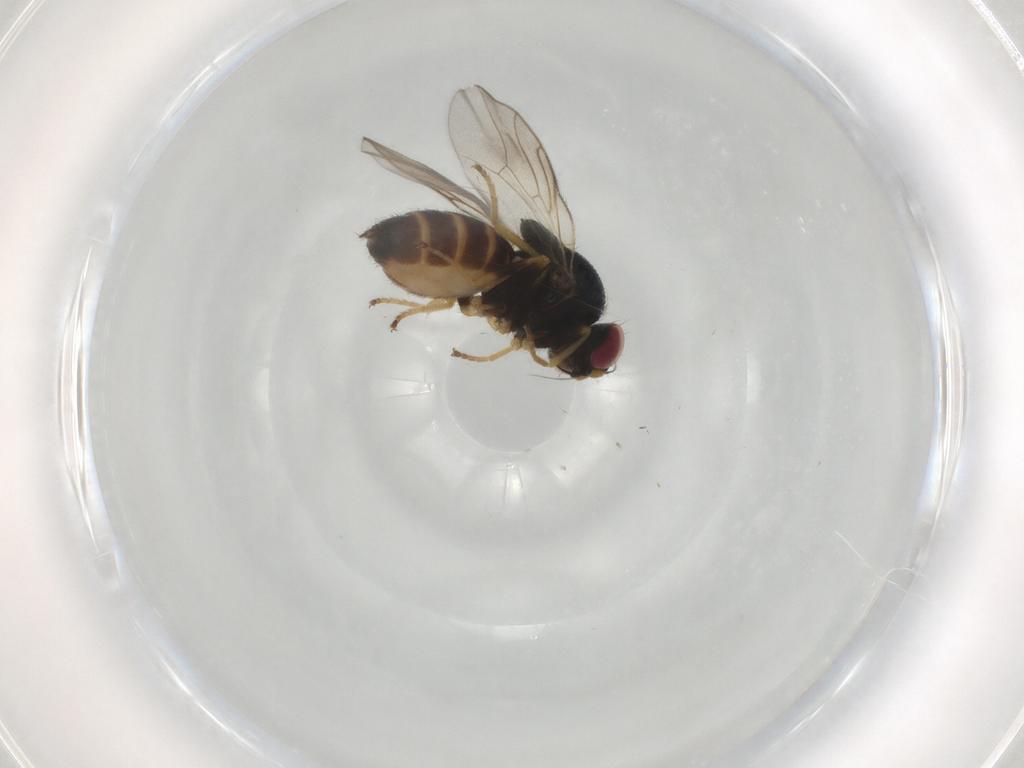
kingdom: Animalia
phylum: Arthropoda
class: Insecta
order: Diptera
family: Chloropidae
